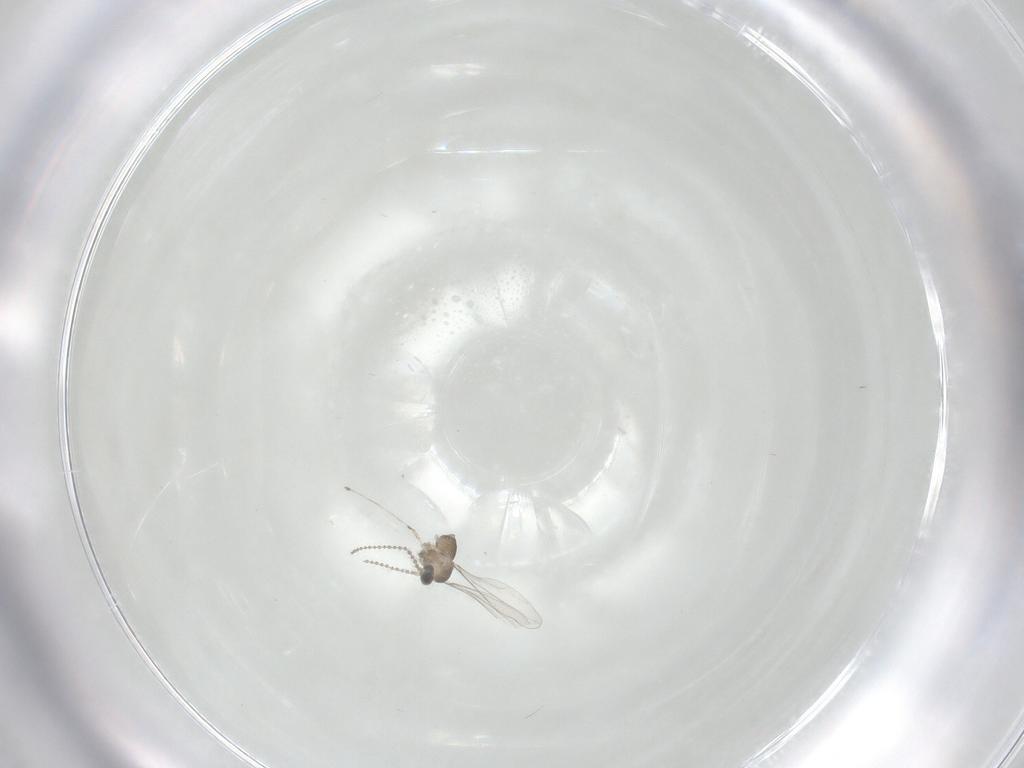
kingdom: Animalia
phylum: Arthropoda
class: Insecta
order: Diptera
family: Cecidomyiidae
